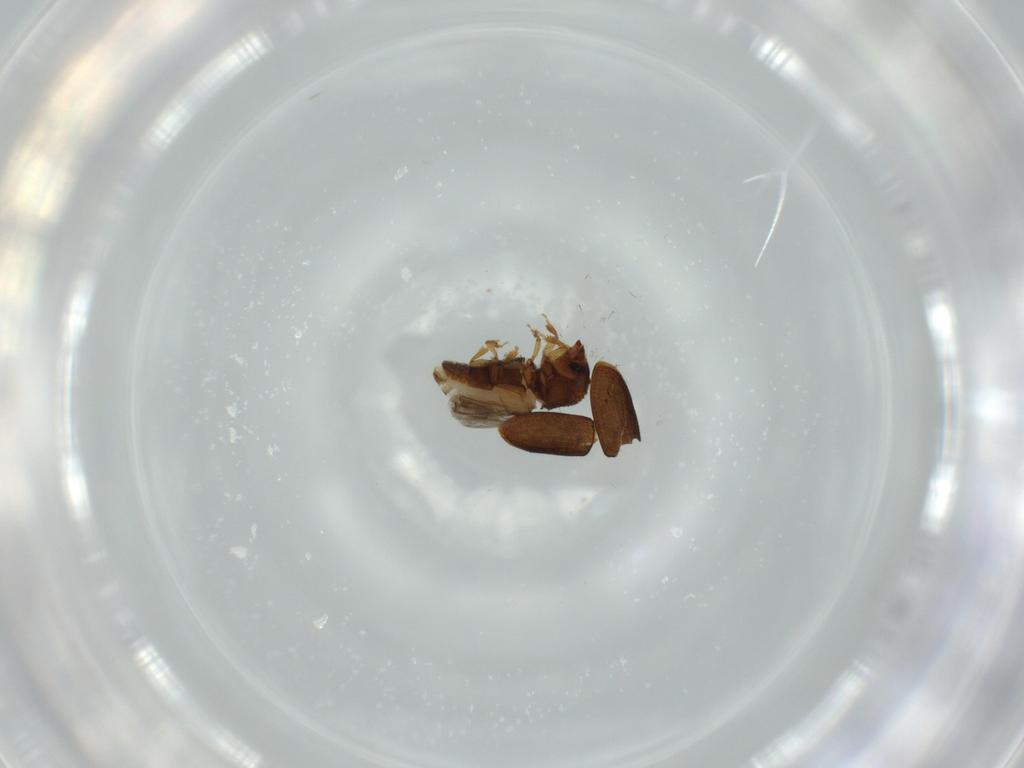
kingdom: Animalia
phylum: Arthropoda
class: Insecta
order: Coleoptera
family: Curculionidae
